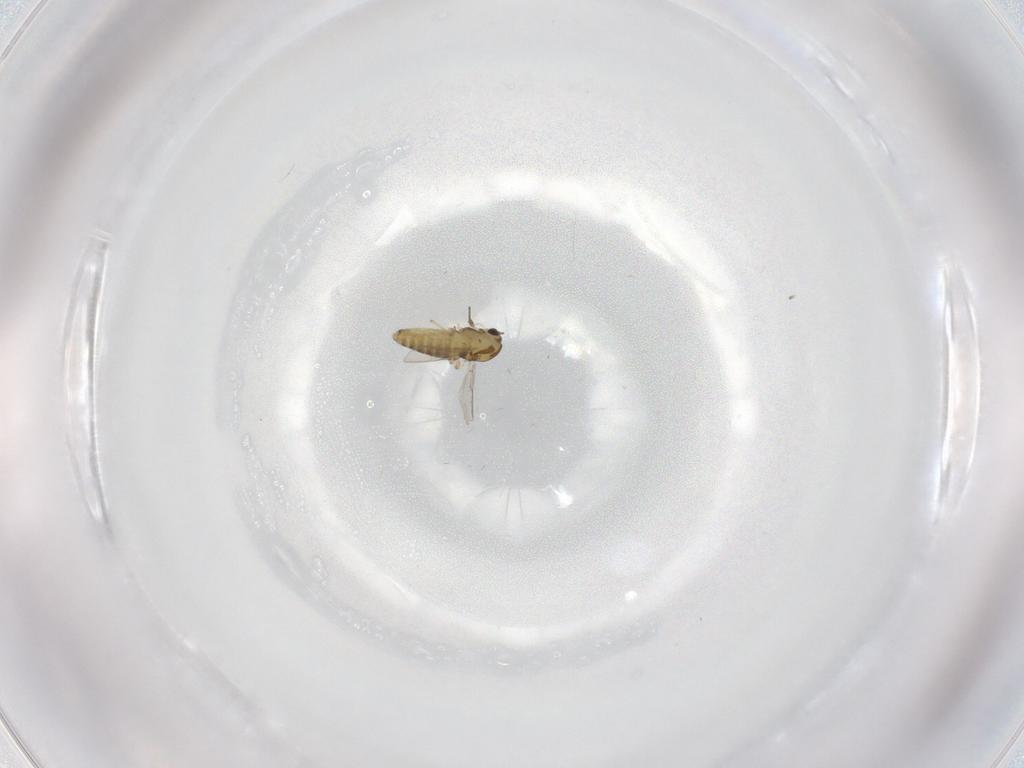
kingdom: Animalia
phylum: Arthropoda
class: Insecta
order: Diptera
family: Chironomidae
